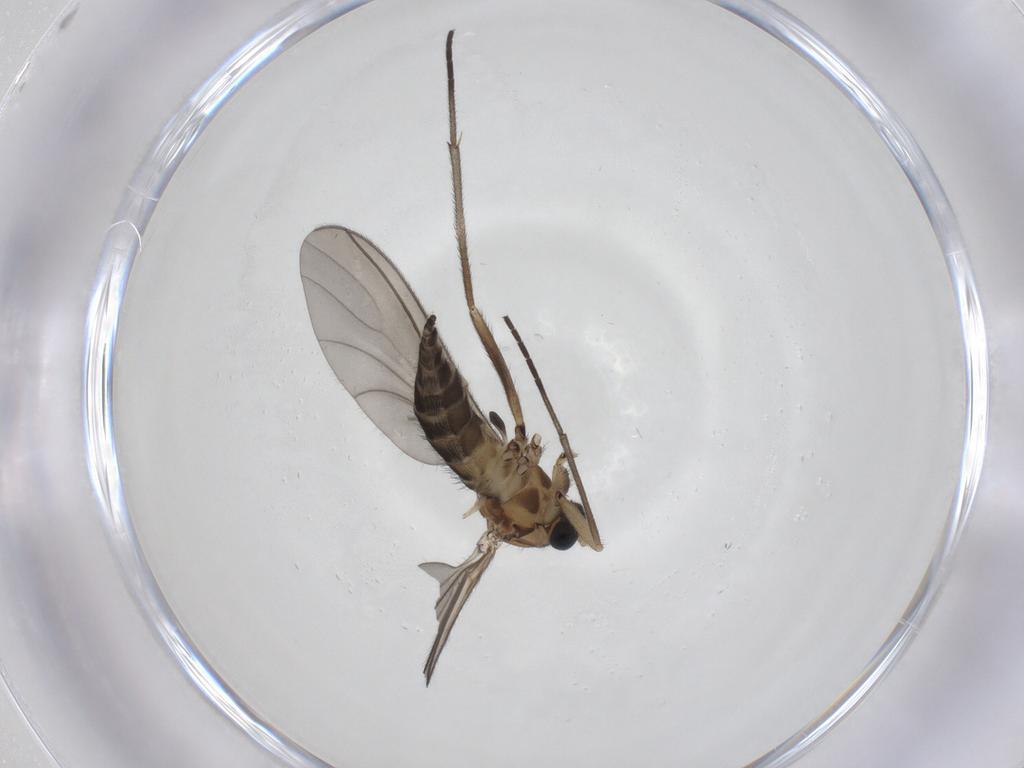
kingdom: Animalia
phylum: Arthropoda
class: Insecta
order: Diptera
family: Sciaridae
